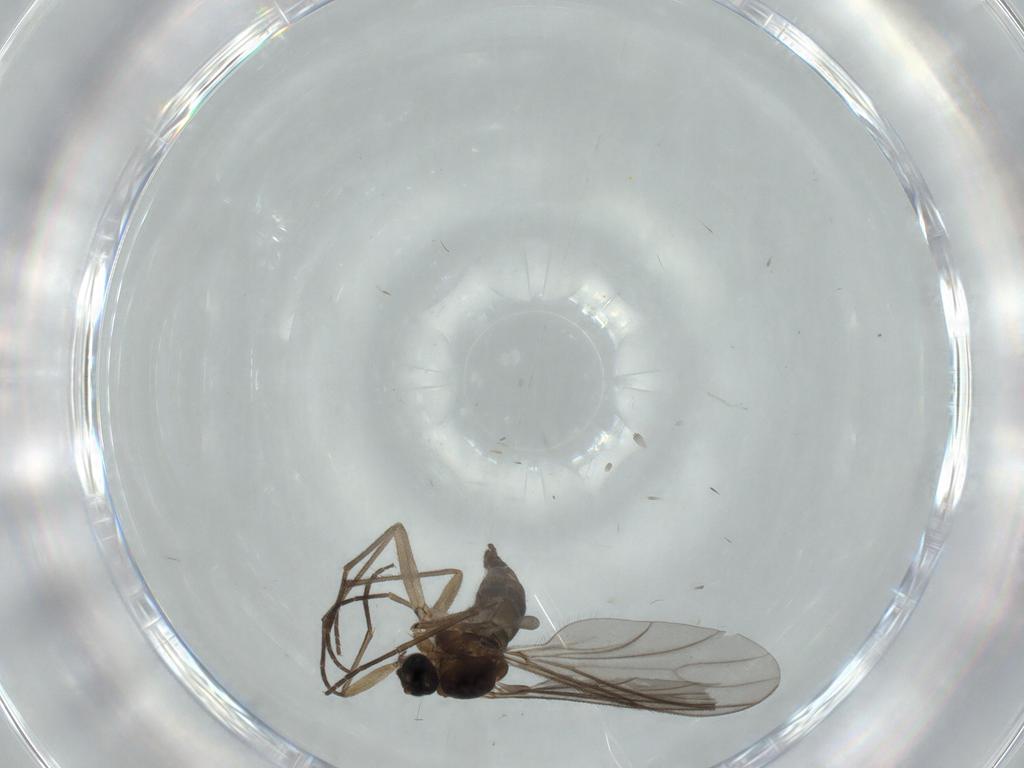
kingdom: Animalia
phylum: Arthropoda
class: Insecta
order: Diptera
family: Sciaridae
